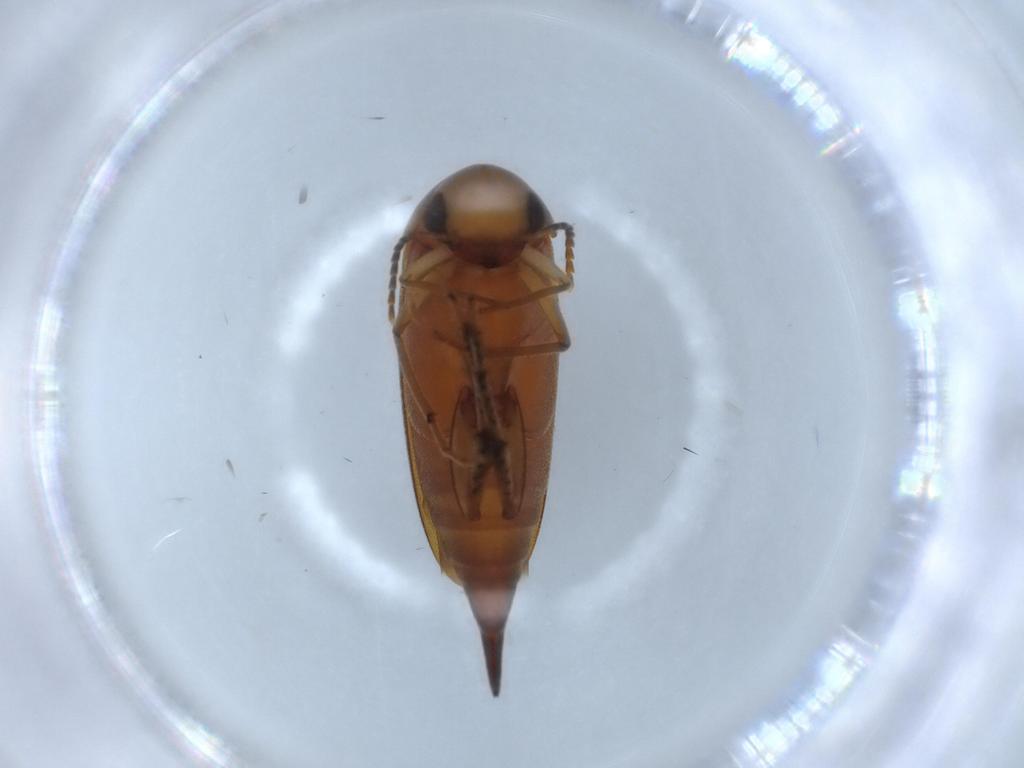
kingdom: Animalia
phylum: Arthropoda
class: Insecta
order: Coleoptera
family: Mordellidae
